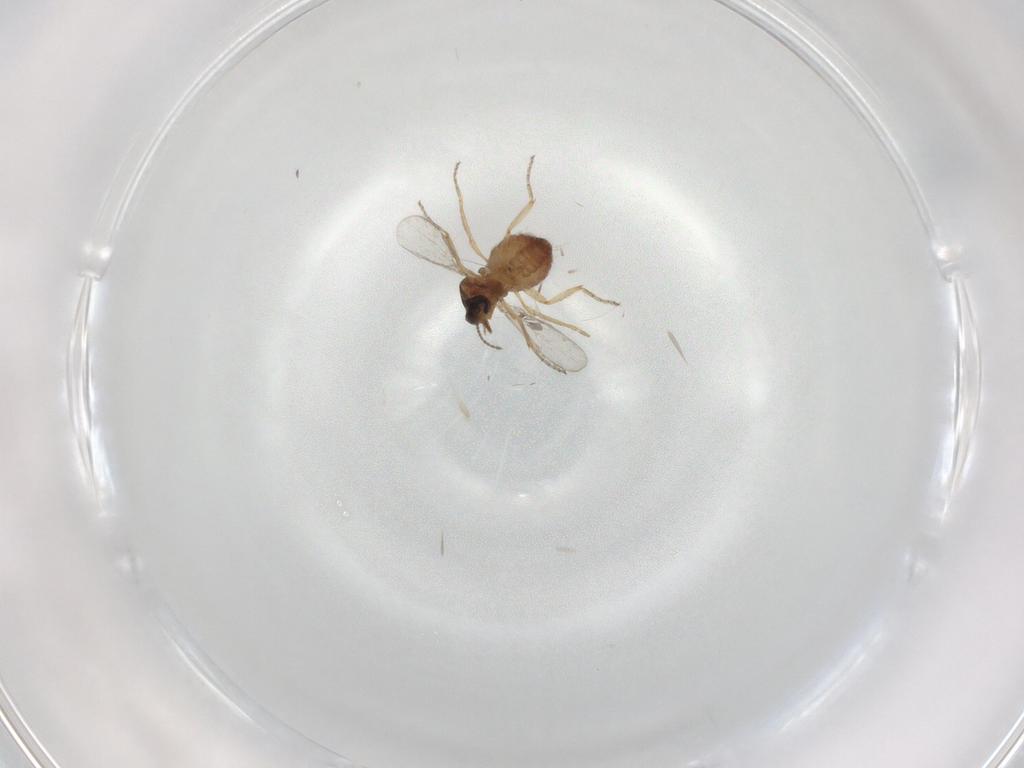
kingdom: Animalia
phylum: Arthropoda
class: Insecta
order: Diptera
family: Ceratopogonidae
